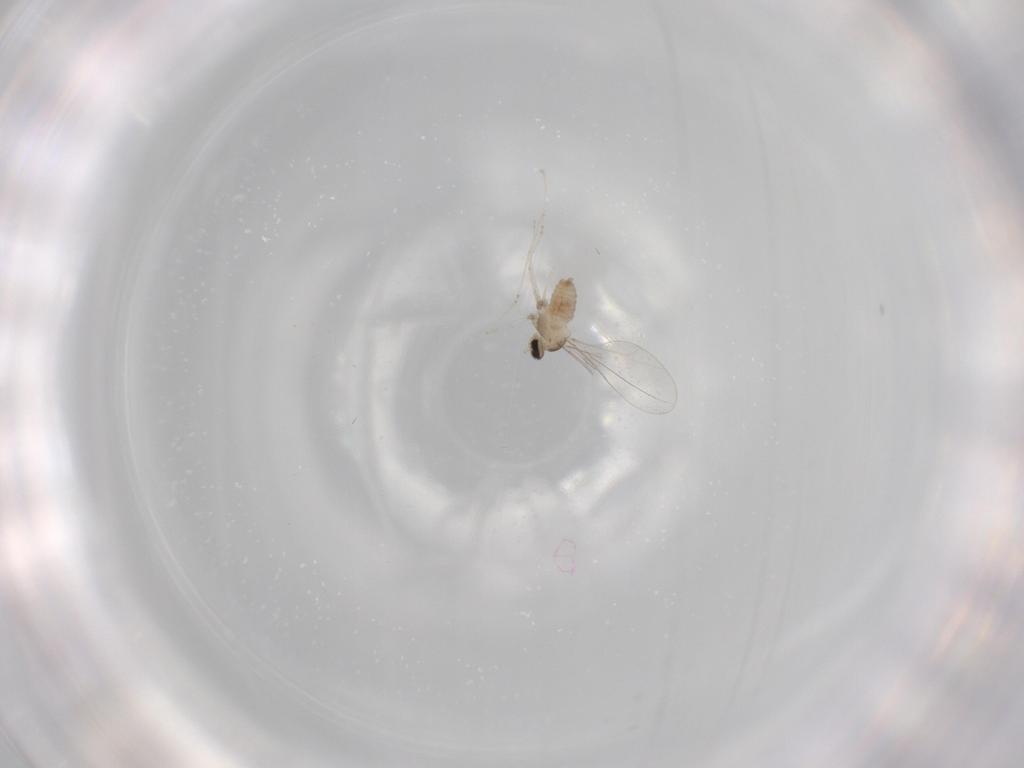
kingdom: Animalia
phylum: Arthropoda
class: Insecta
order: Diptera
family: Cecidomyiidae
